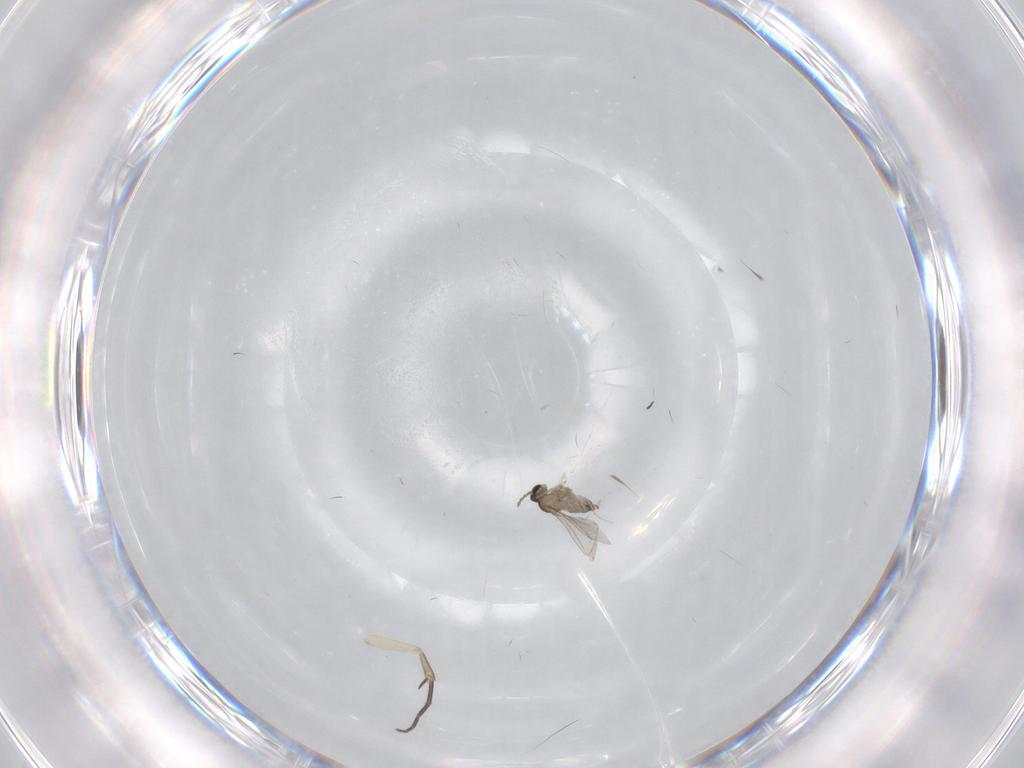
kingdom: Animalia
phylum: Arthropoda
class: Insecta
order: Diptera
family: Mycetophilidae
